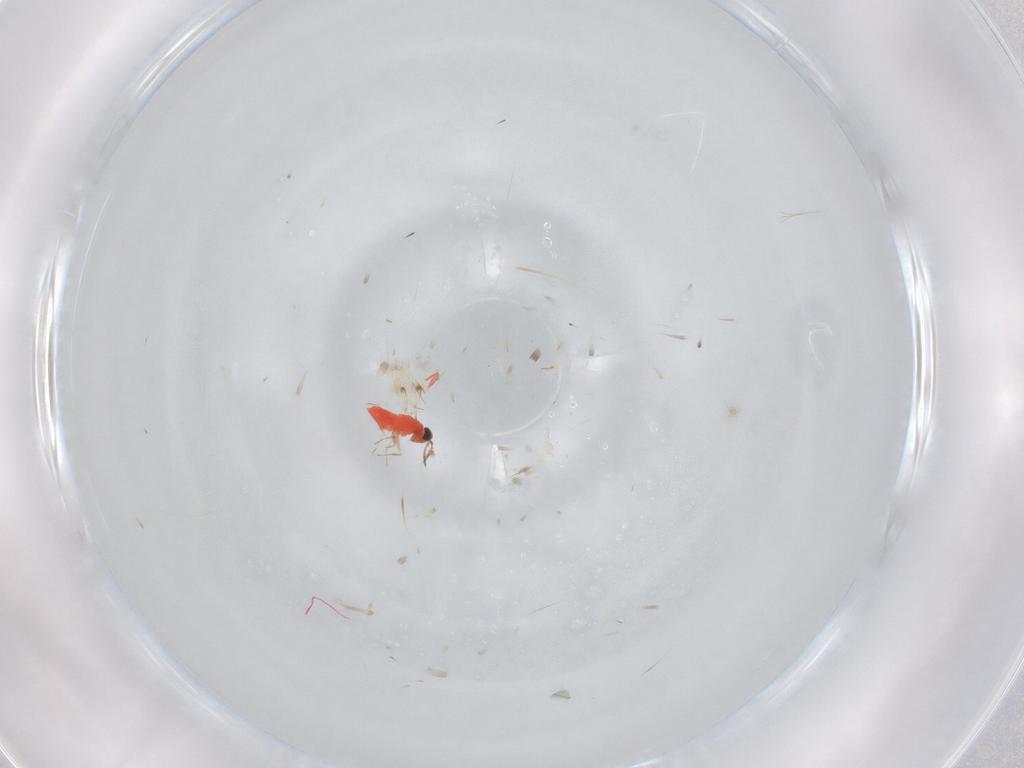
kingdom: Animalia
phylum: Arthropoda
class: Insecta
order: Hymenoptera
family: Trichogrammatidae
